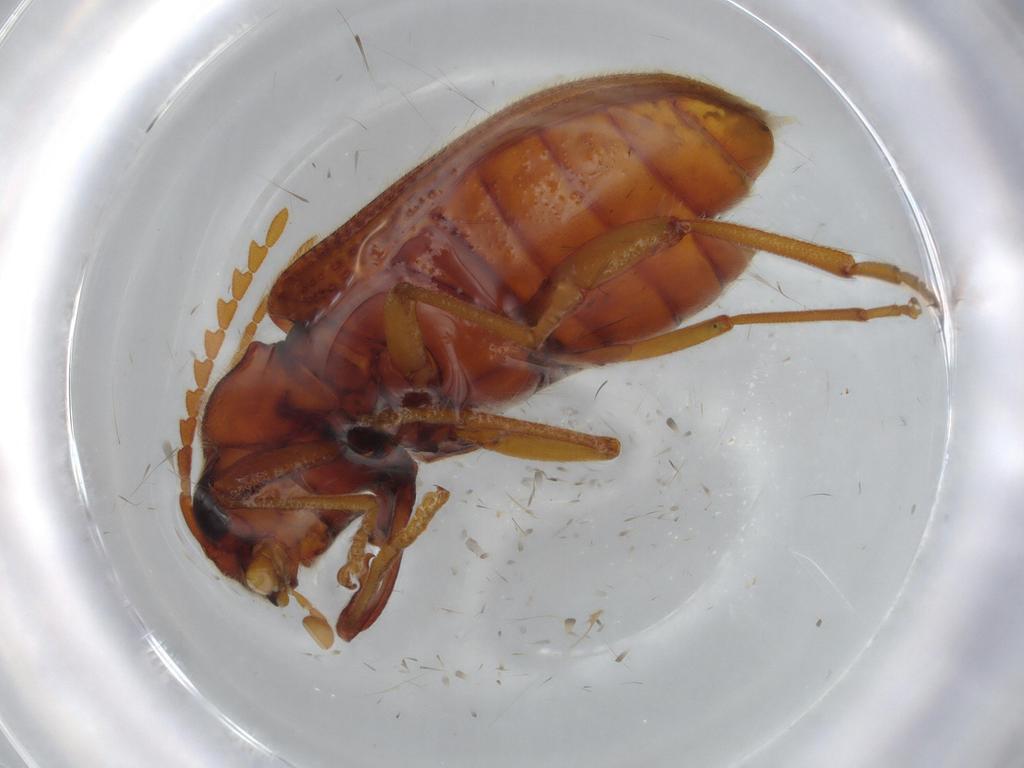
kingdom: Animalia
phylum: Arthropoda
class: Insecta
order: Coleoptera
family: Cerophytidae
